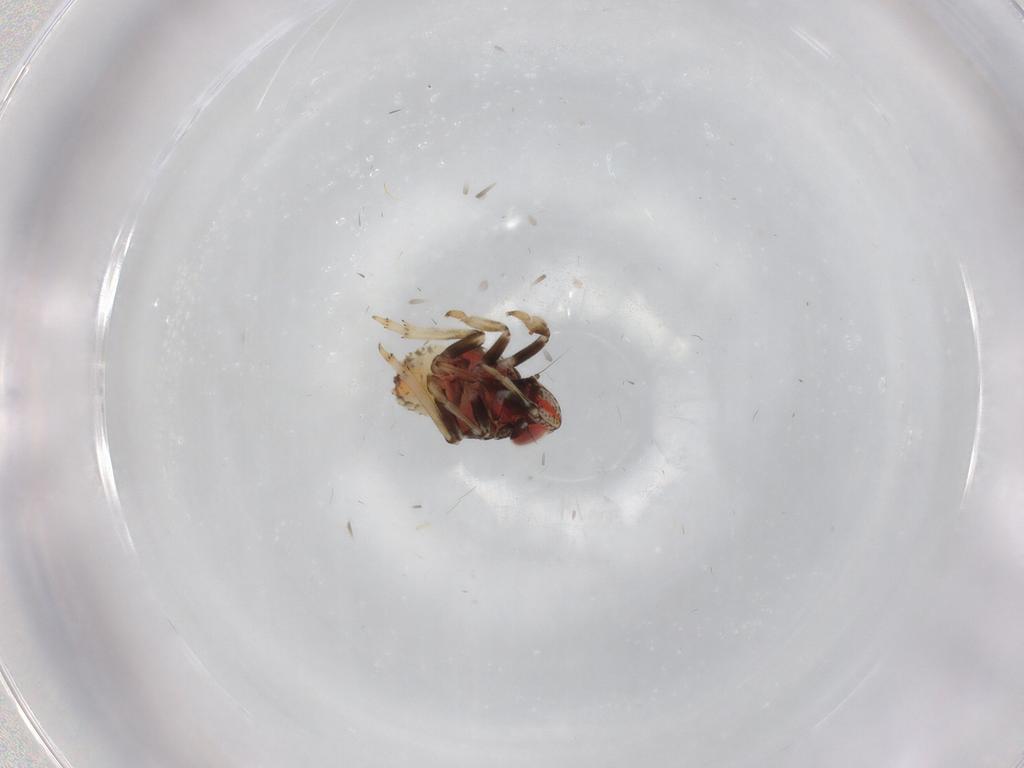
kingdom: Animalia
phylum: Arthropoda
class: Insecta
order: Hemiptera
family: Issidae
